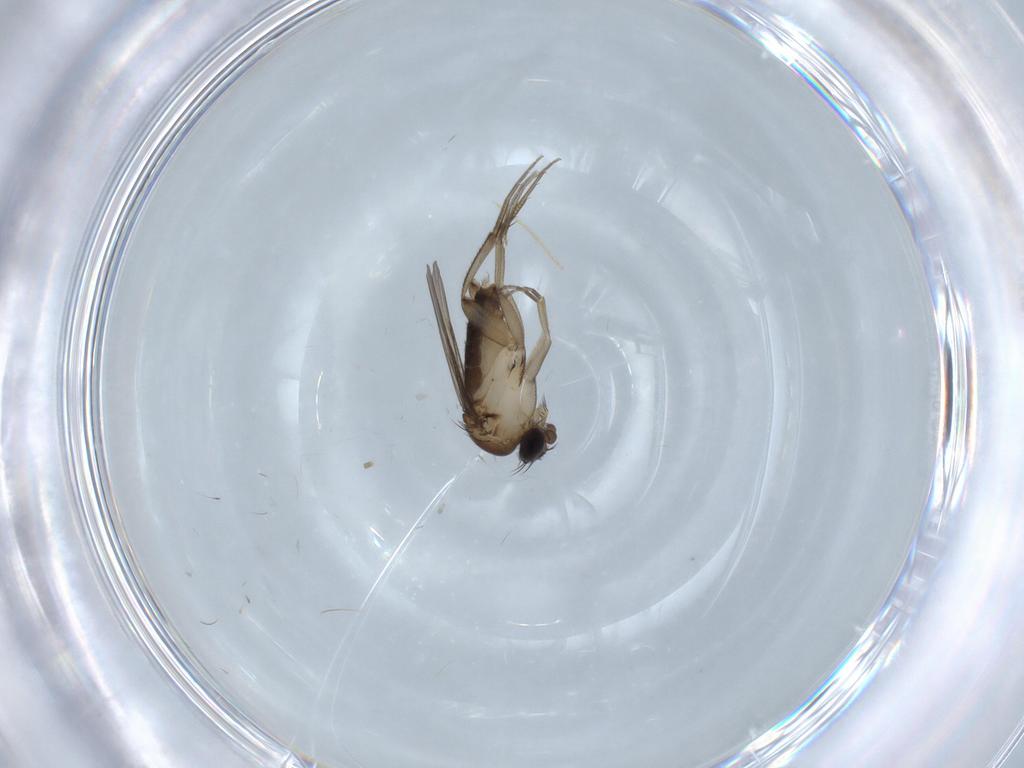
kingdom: Animalia
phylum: Arthropoda
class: Insecta
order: Diptera
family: Phoridae
